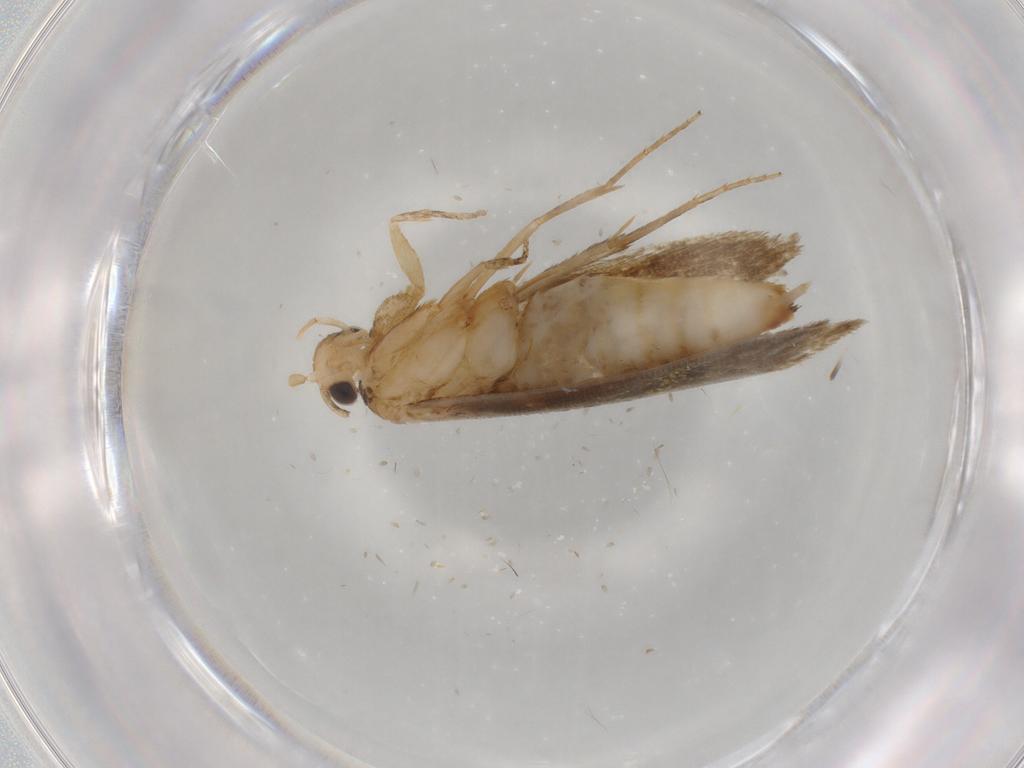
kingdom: Animalia
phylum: Arthropoda
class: Insecta
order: Lepidoptera
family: Tineidae
